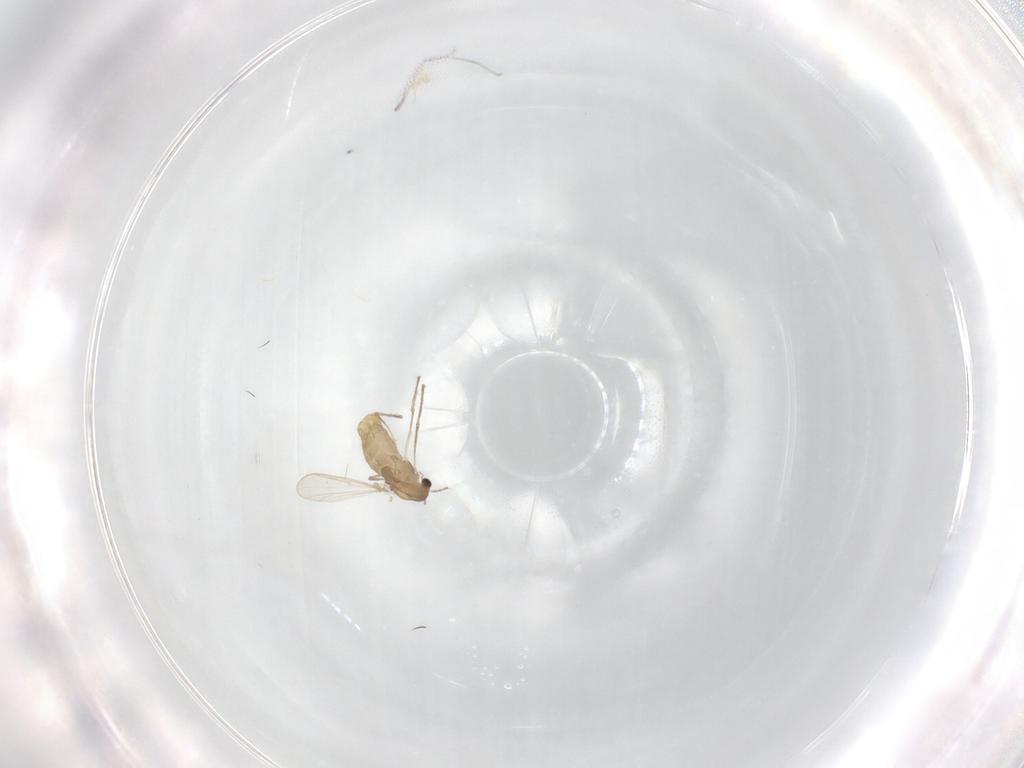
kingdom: Animalia
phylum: Arthropoda
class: Insecta
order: Diptera
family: Chironomidae
